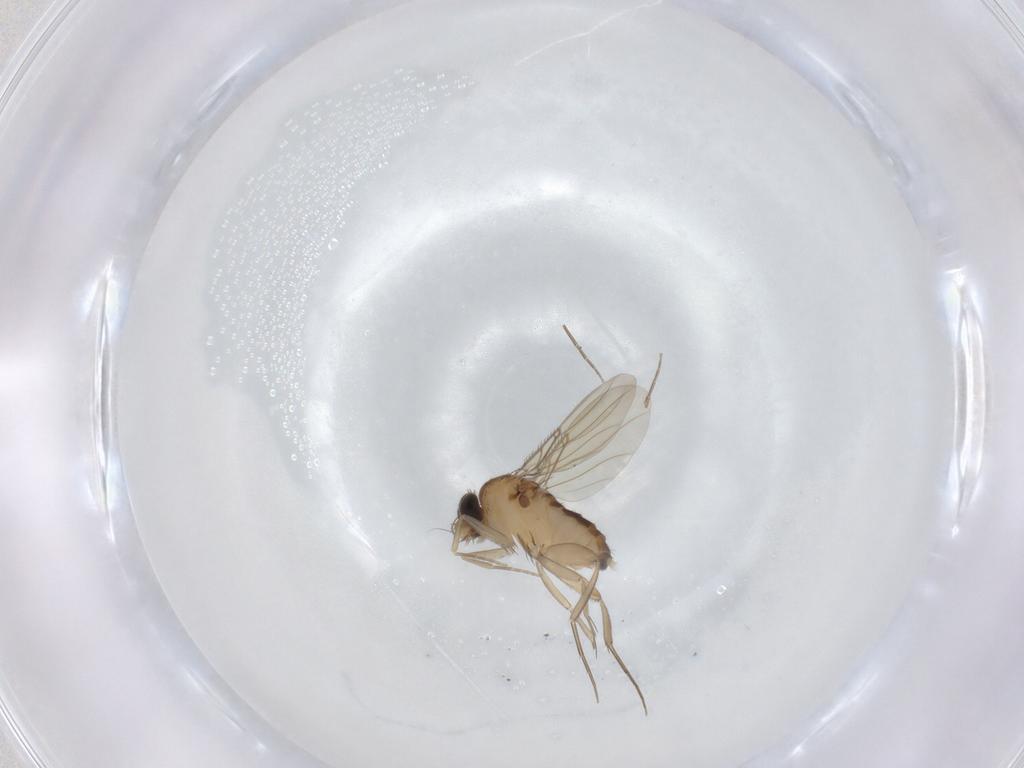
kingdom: Animalia
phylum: Arthropoda
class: Insecta
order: Diptera
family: Phoridae
